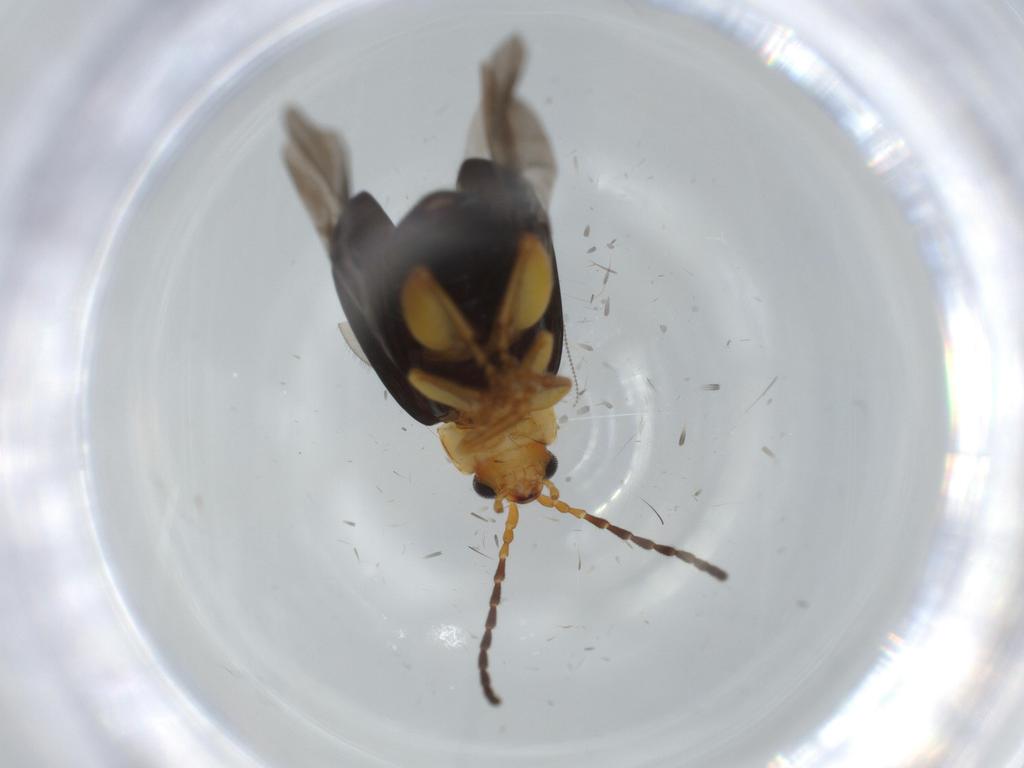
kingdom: Animalia
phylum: Arthropoda
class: Insecta
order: Coleoptera
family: Chrysomelidae
